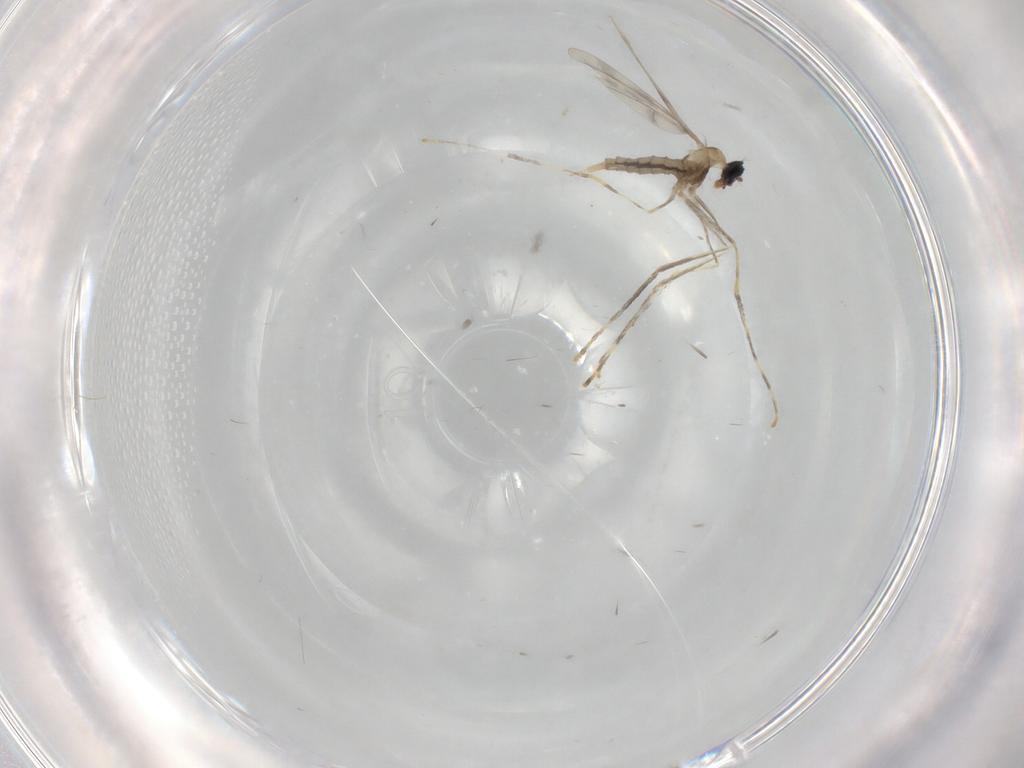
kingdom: Animalia
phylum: Arthropoda
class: Insecta
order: Diptera
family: Cecidomyiidae
